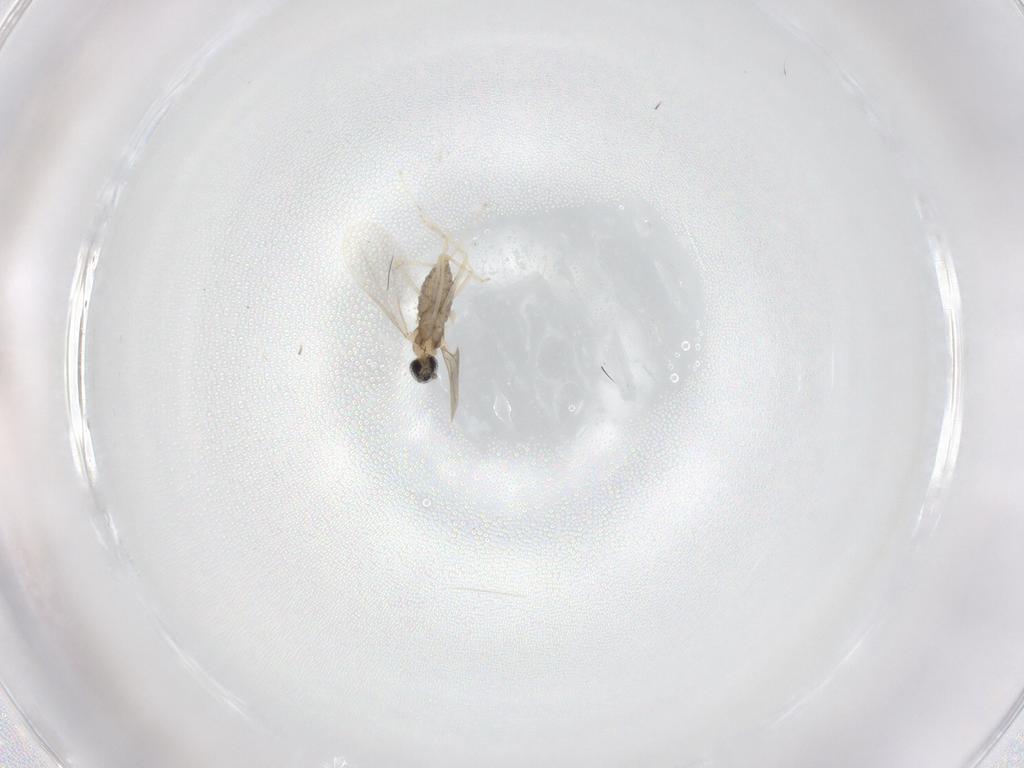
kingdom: Animalia
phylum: Arthropoda
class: Insecta
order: Diptera
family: Cecidomyiidae
